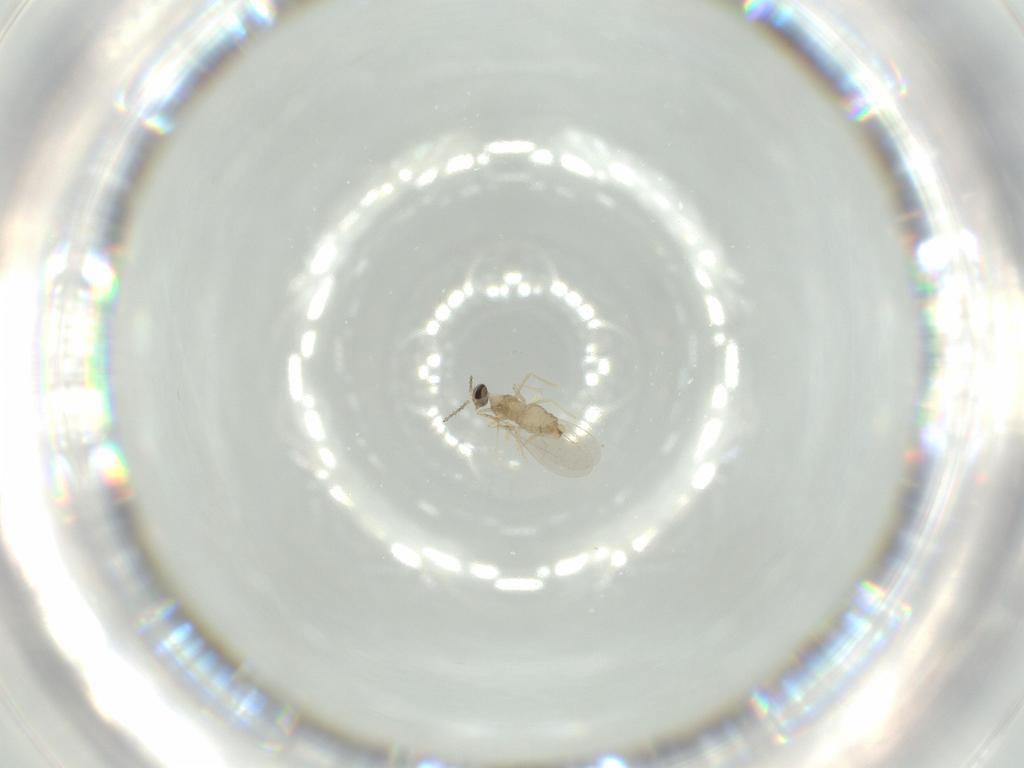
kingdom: Animalia
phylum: Arthropoda
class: Insecta
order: Diptera
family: Cecidomyiidae
